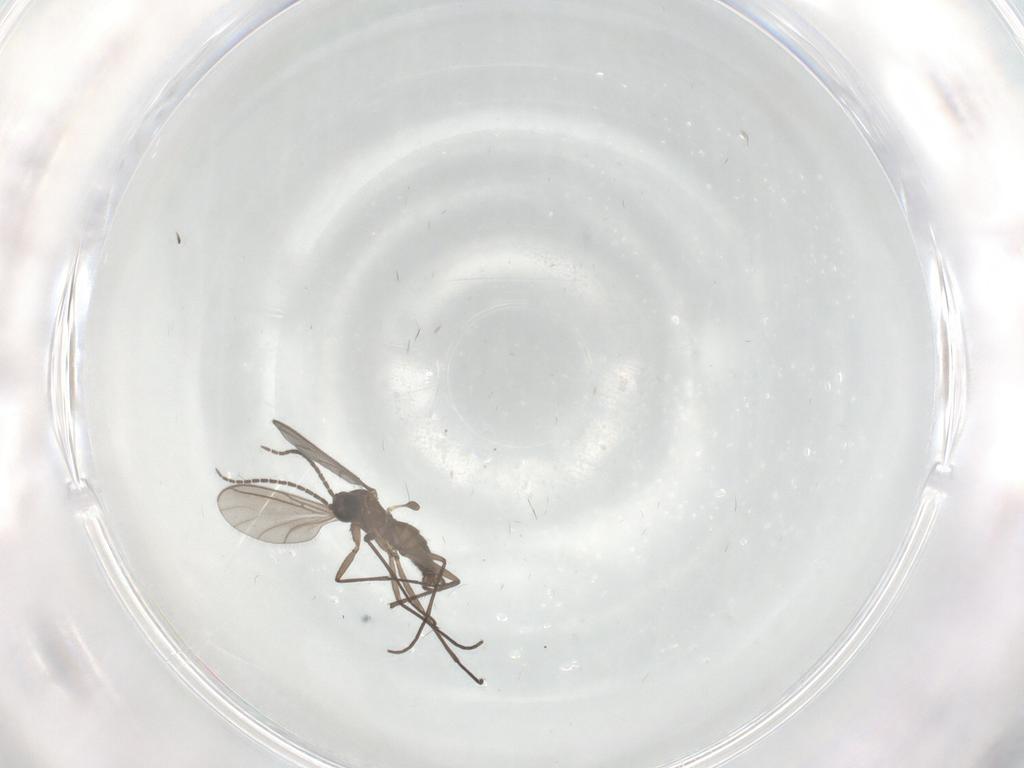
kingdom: Animalia
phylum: Arthropoda
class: Insecta
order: Diptera
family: Sciaridae
